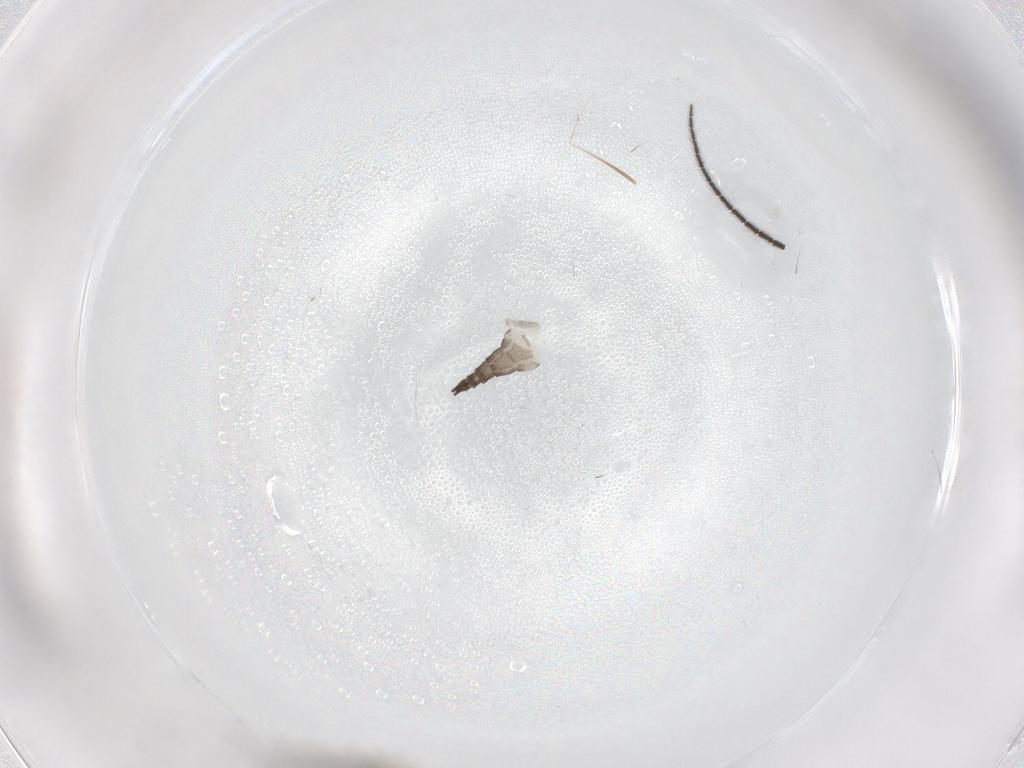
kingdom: Animalia
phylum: Arthropoda
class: Insecta
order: Diptera
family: Sciaridae
